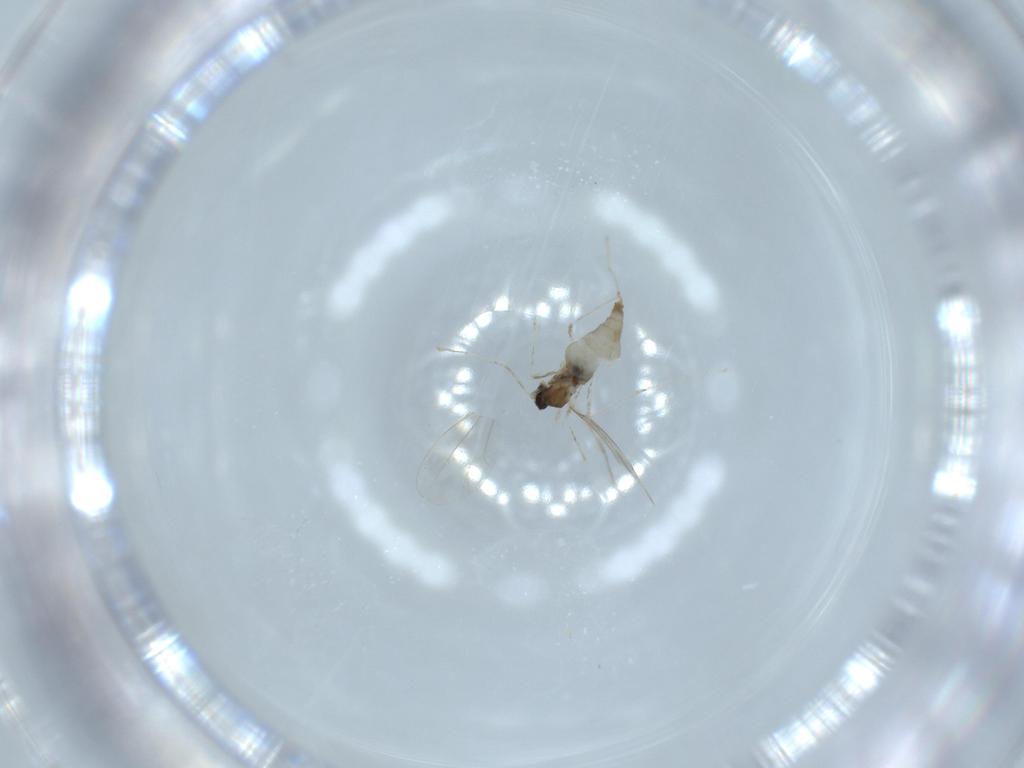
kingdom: Animalia
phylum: Arthropoda
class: Insecta
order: Diptera
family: Cecidomyiidae
